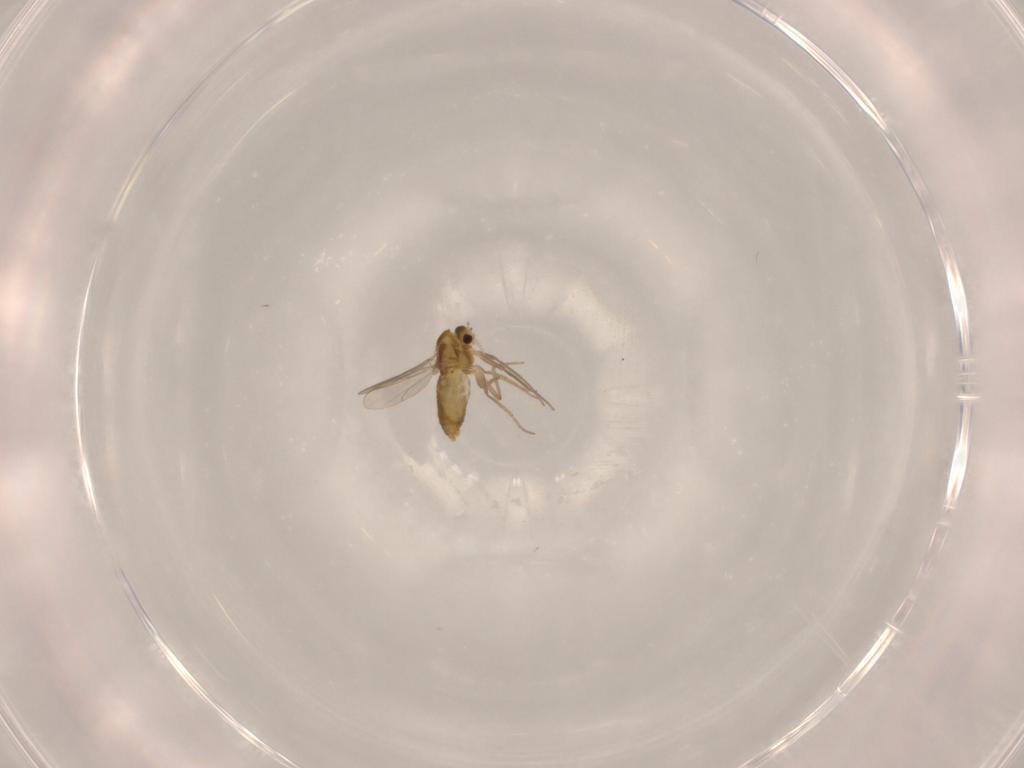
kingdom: Animalia
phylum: Arthropoda
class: Insecta
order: Diptera
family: Chironomidae
